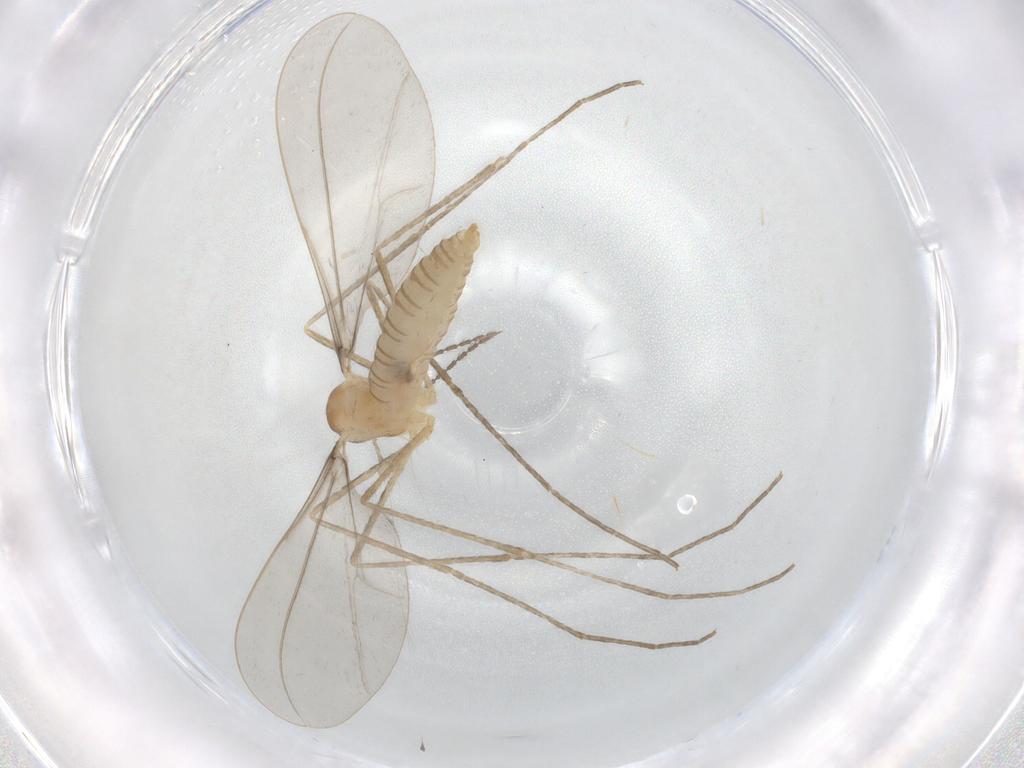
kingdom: Animalia
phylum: Arthropoda
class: Insecta
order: Diptera
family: Cecidomyiidae
